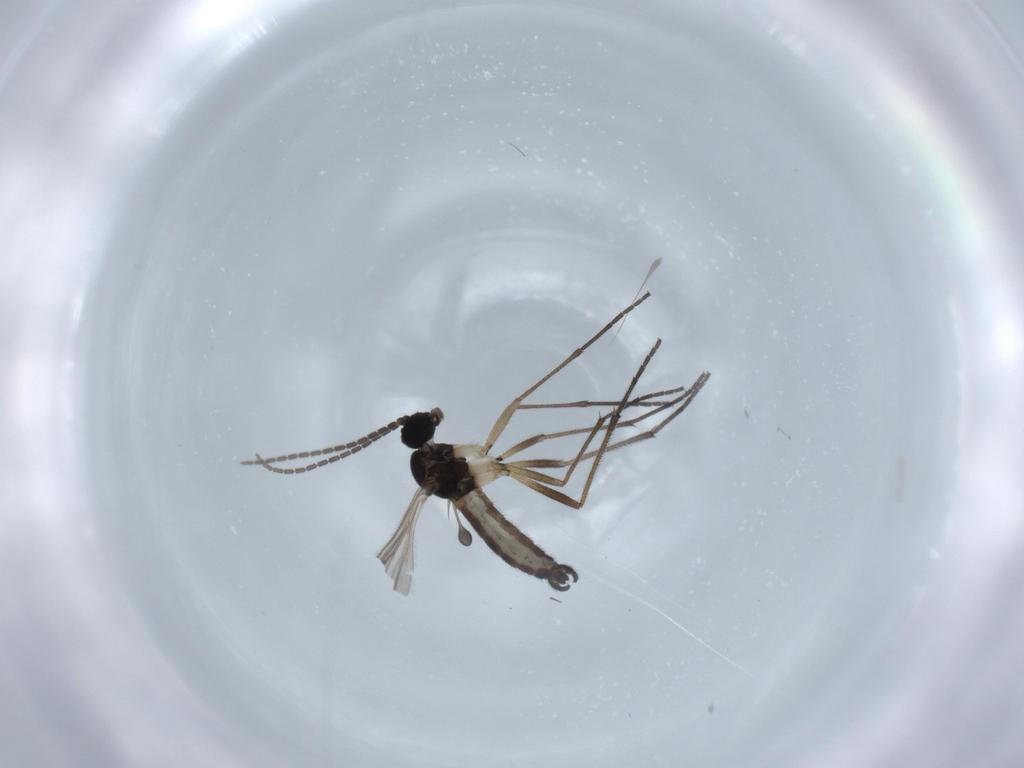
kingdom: Animalia
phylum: Arthropoda
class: Insecta
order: Diptera
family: Sciaridae
